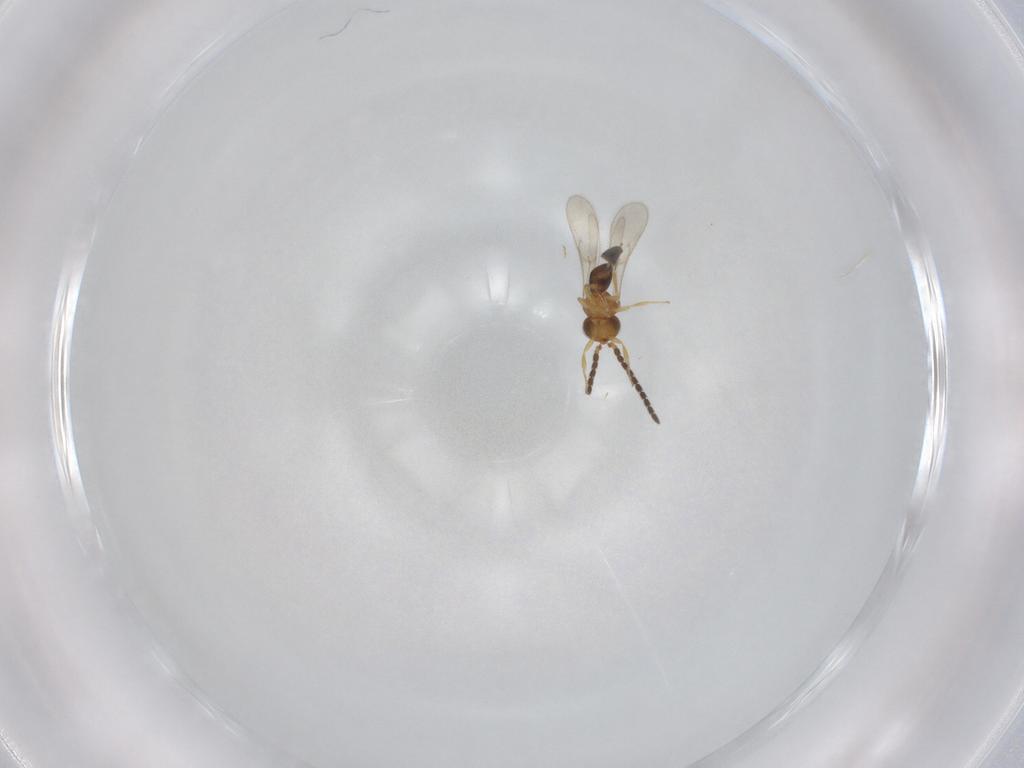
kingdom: Animalia
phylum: Arthropoda
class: Insecta
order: Hymenoptera
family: Scelionidae
